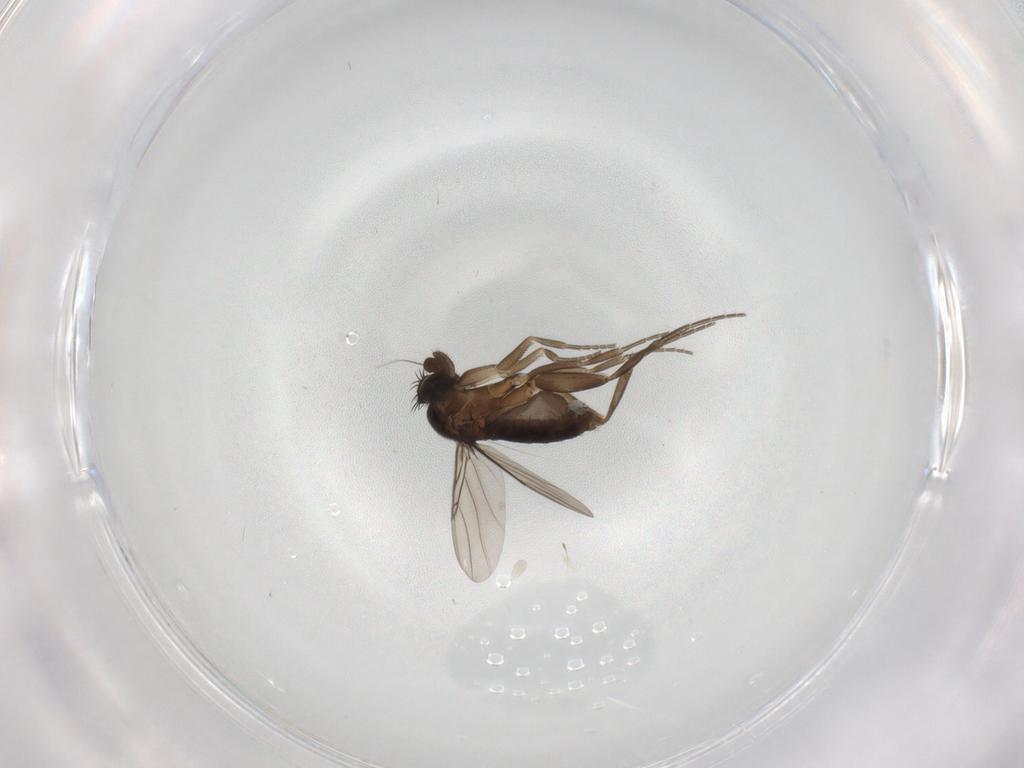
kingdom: Animalia
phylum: Arthropoda
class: Insecta
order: Diptera
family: Phoridae
